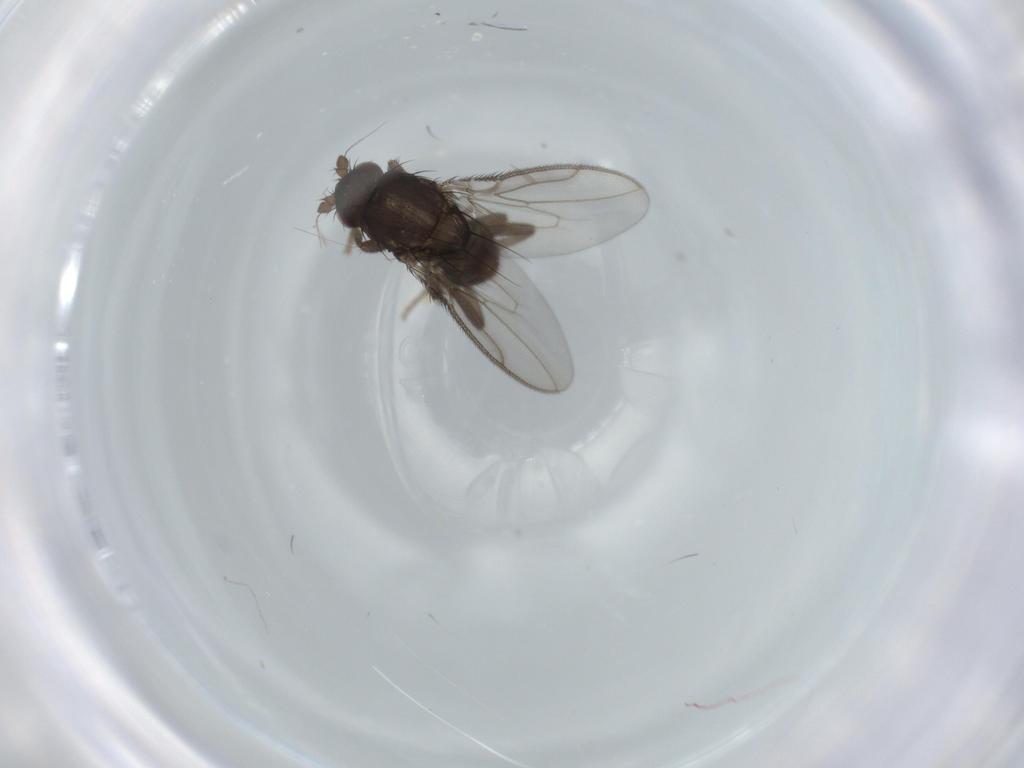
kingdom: Animalia
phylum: Arthropoda
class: Insecta
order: Diptera
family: Sphaeroceridae
